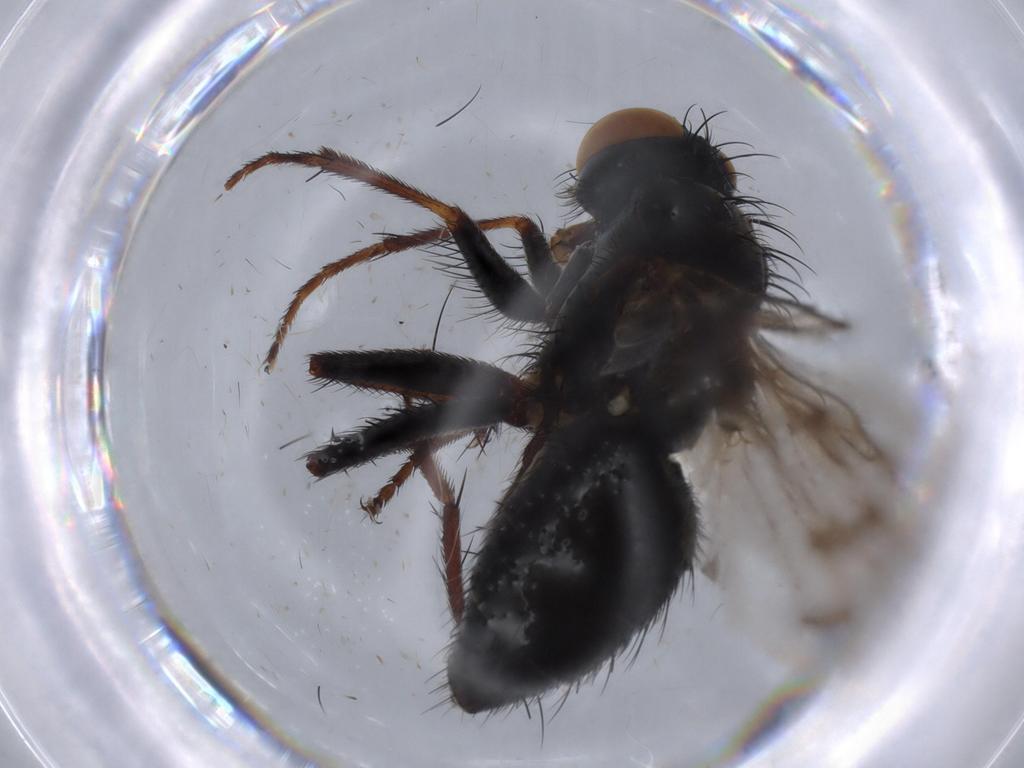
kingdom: Animalia
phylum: Arthropoda
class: Insecta
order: Diptera
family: Muscidae
